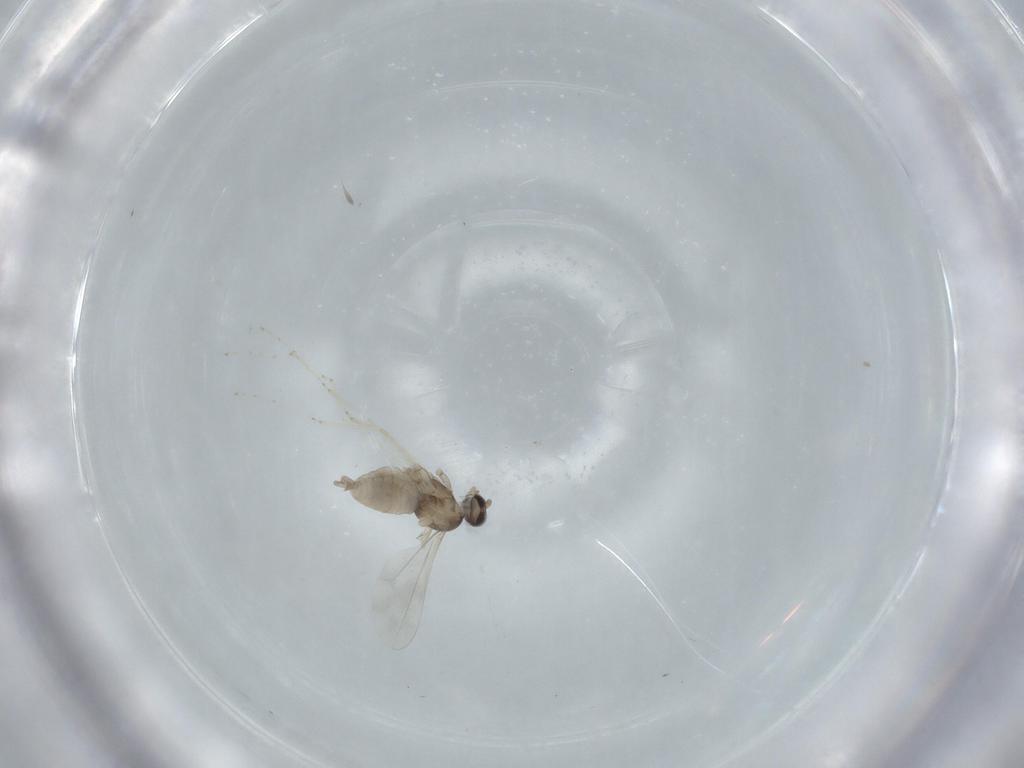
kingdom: Animalia
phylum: Arthropoda
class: Insecta
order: Diptera
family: Cecidomyiidae
